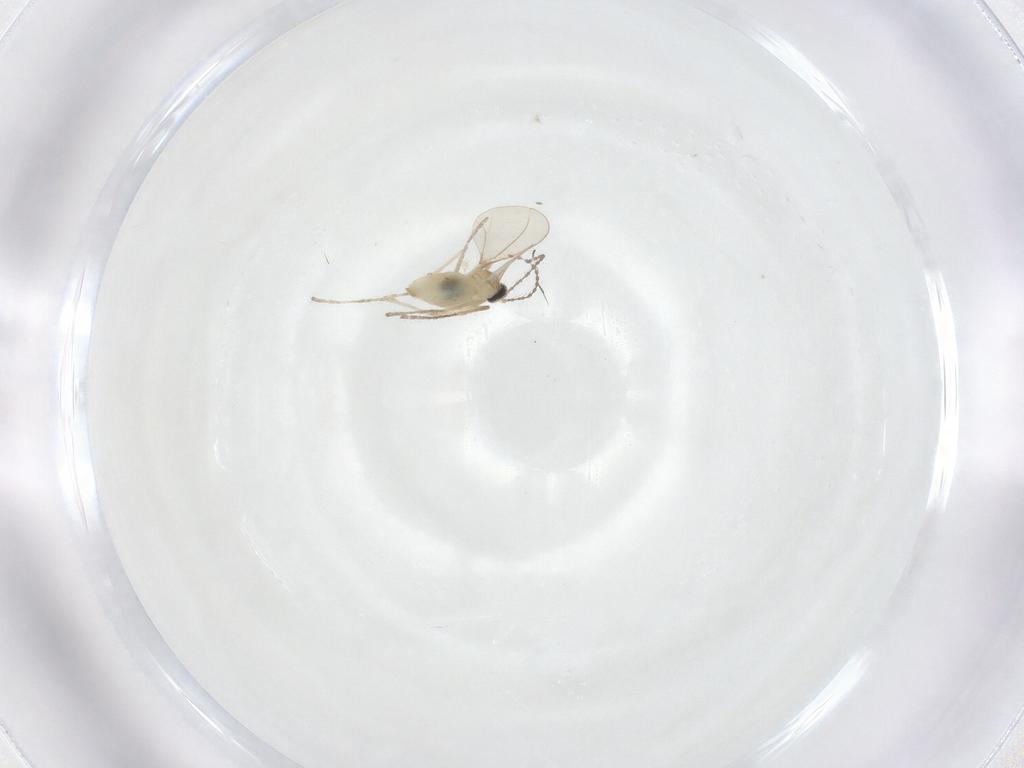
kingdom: Animalia
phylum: Arthropoda
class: Insecta
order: Diptera
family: Cecidomyiidae
